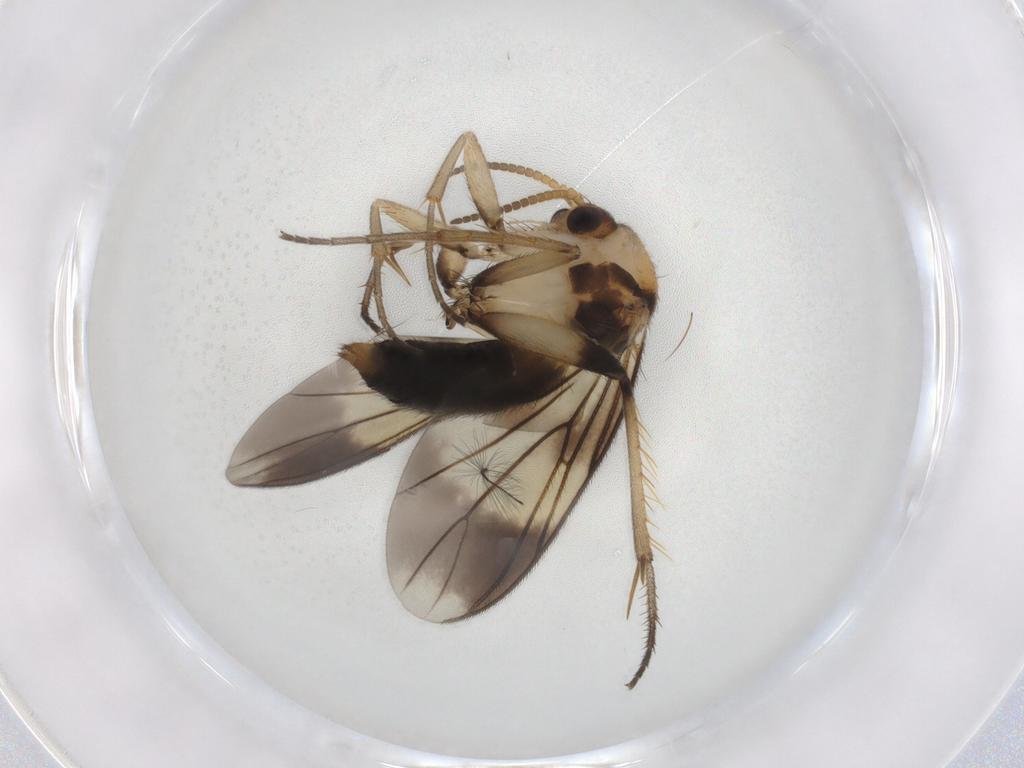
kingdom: Animalia
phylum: Arthropoda
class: Insecta
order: Diptera
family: Mycetophilidae
